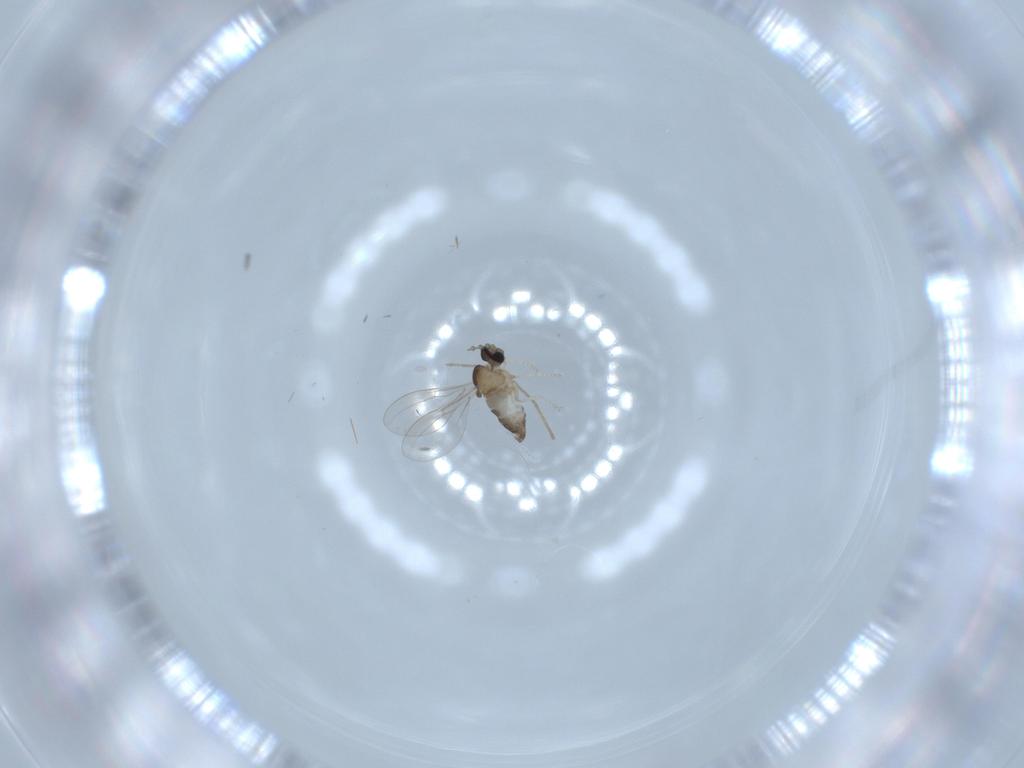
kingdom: Animalia
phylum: Arthropoda
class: Insecta
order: Diptera
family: Cecidomyiidae
